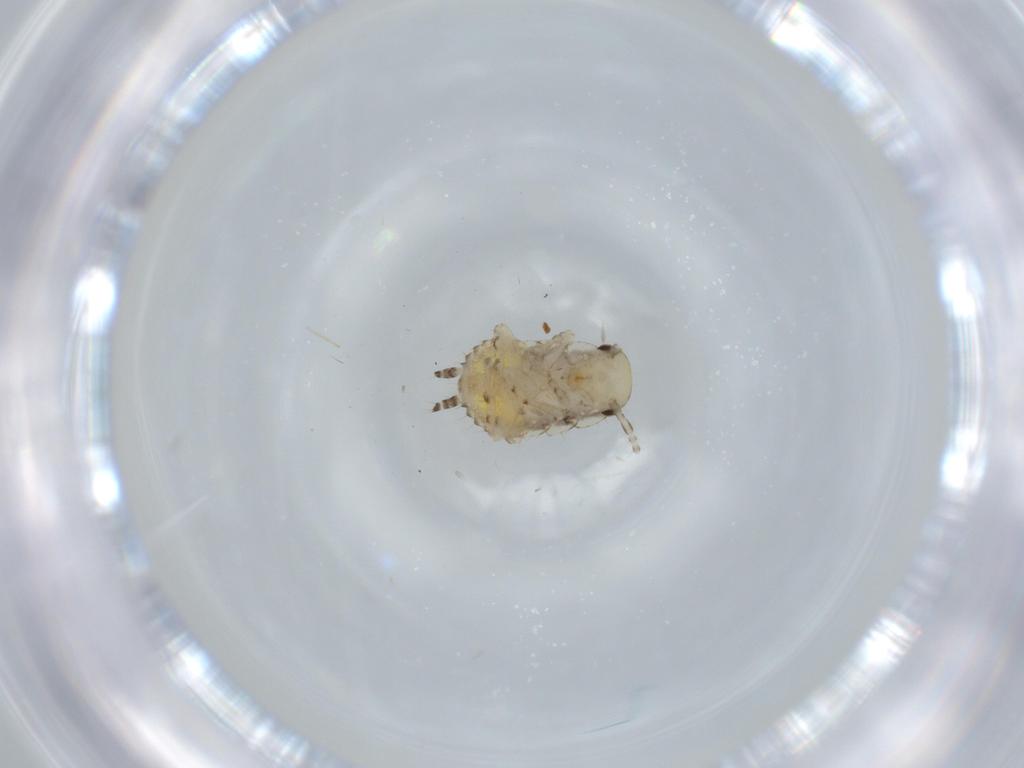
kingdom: Animalia
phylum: Arthropoda
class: Insecta
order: Blattodea
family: Ectobiidae
